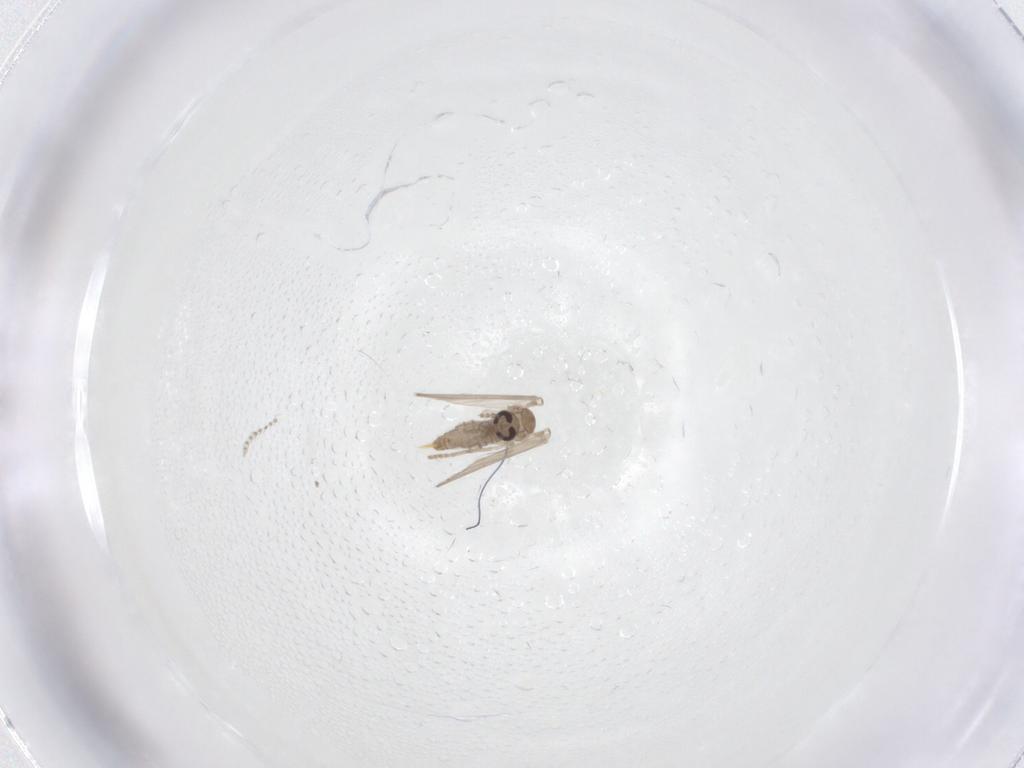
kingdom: Animalia
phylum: Arthropoda
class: Insecta
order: Diptera
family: Psychodidae
